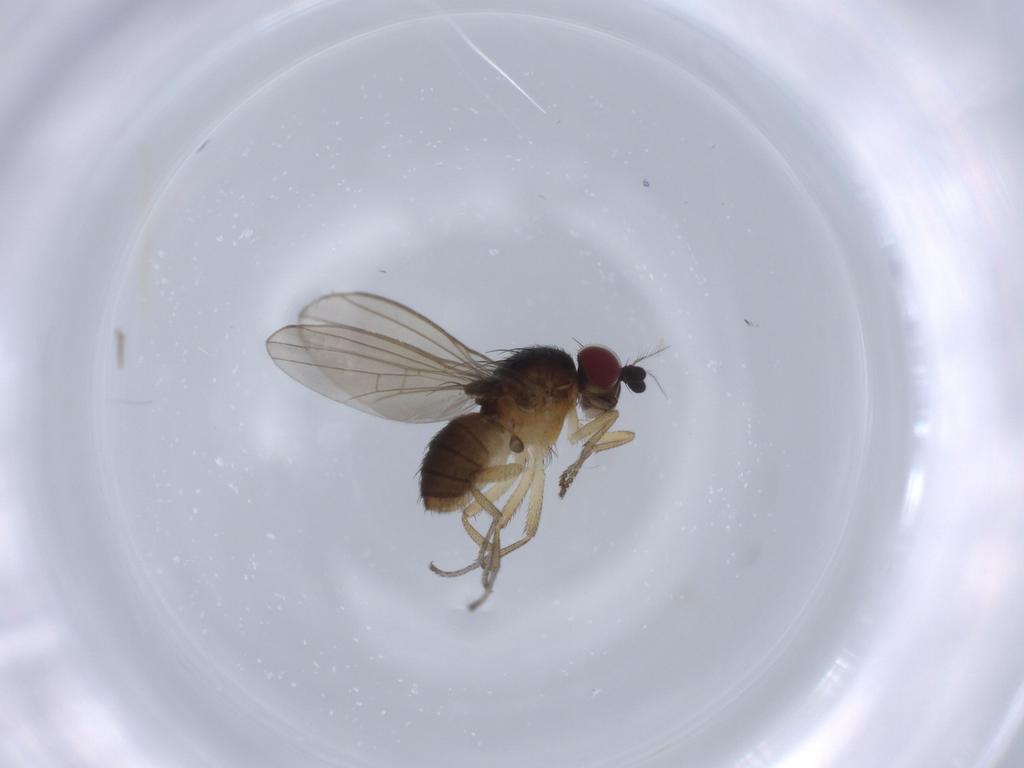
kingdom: Animalia
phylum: Arthropoda
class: Insecta
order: Diptera
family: Lauxaniidae
